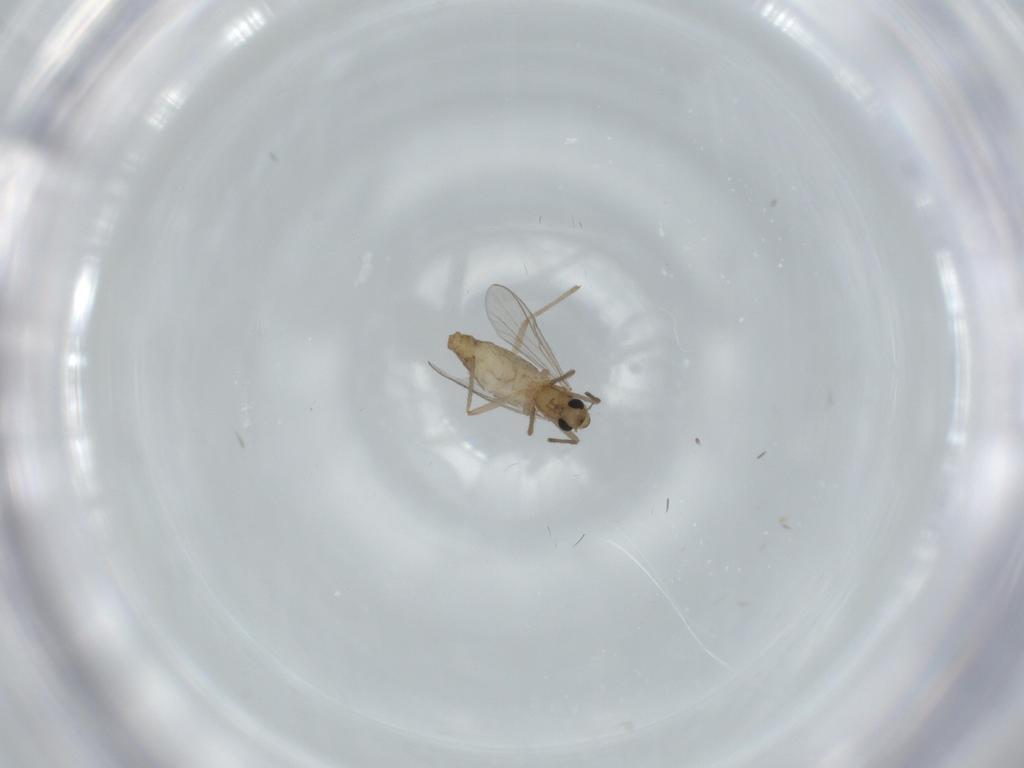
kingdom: Animalia
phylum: Arthropoda
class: Insecta
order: Diptera
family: Chironomidae
